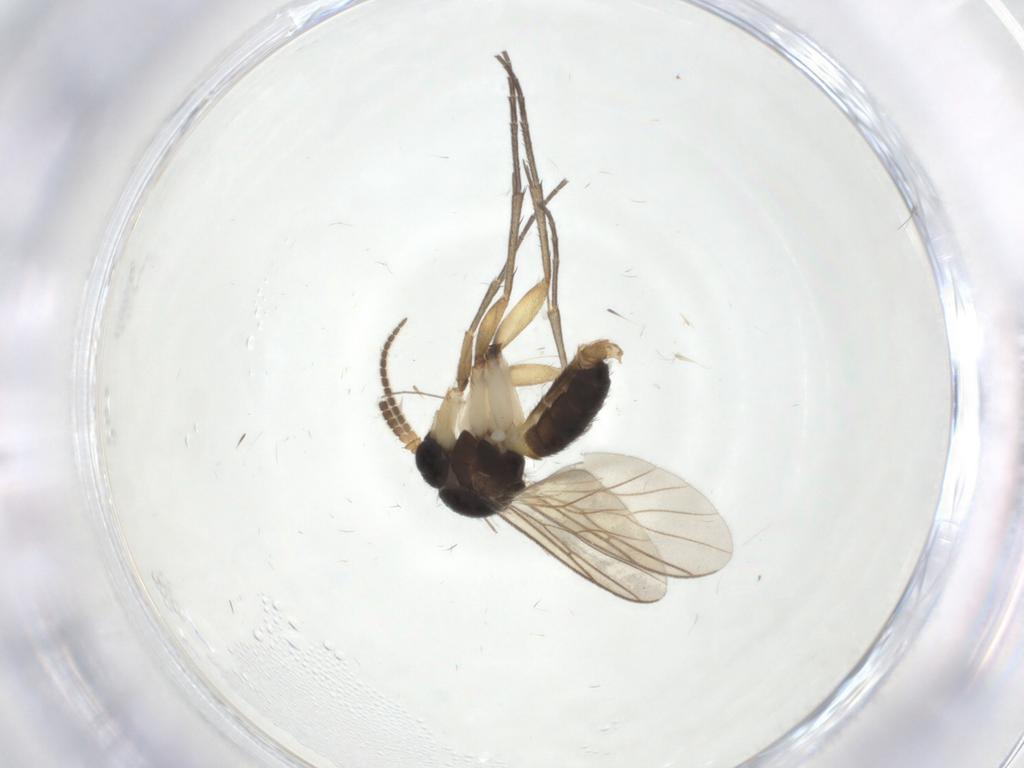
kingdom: Animalia
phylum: Arthropoda
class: Insecta
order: Diptera
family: Mycetophilidae
